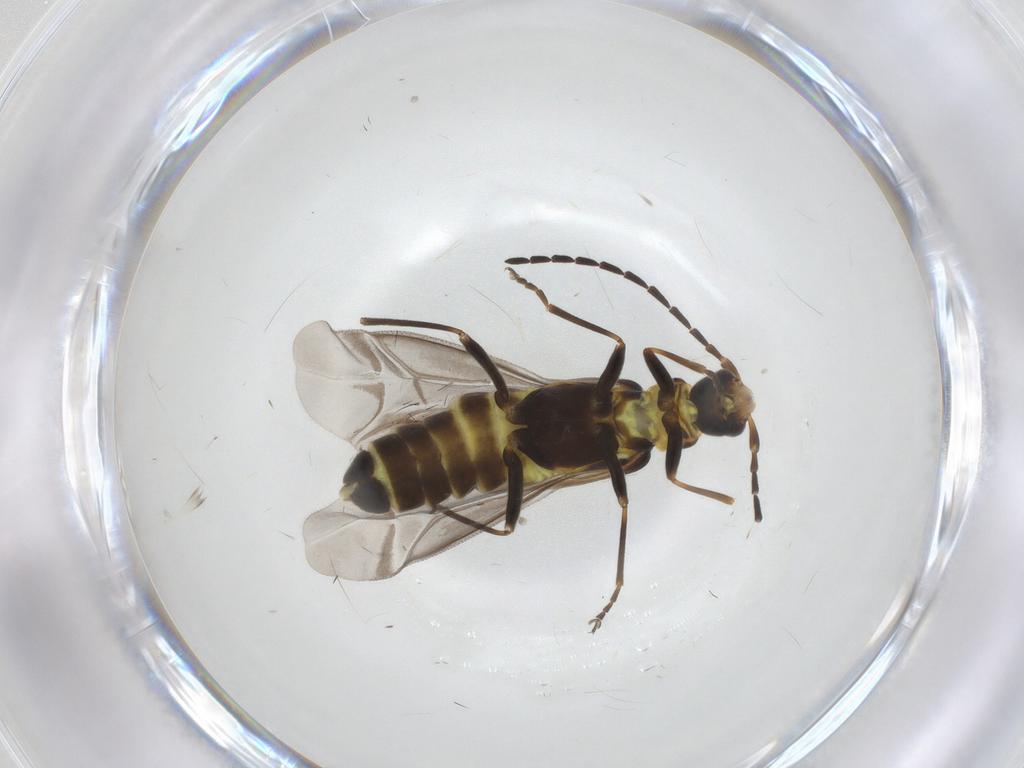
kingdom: Animalia
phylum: Arthropoda
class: Insecta
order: Coleoptera
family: Cantharidae
